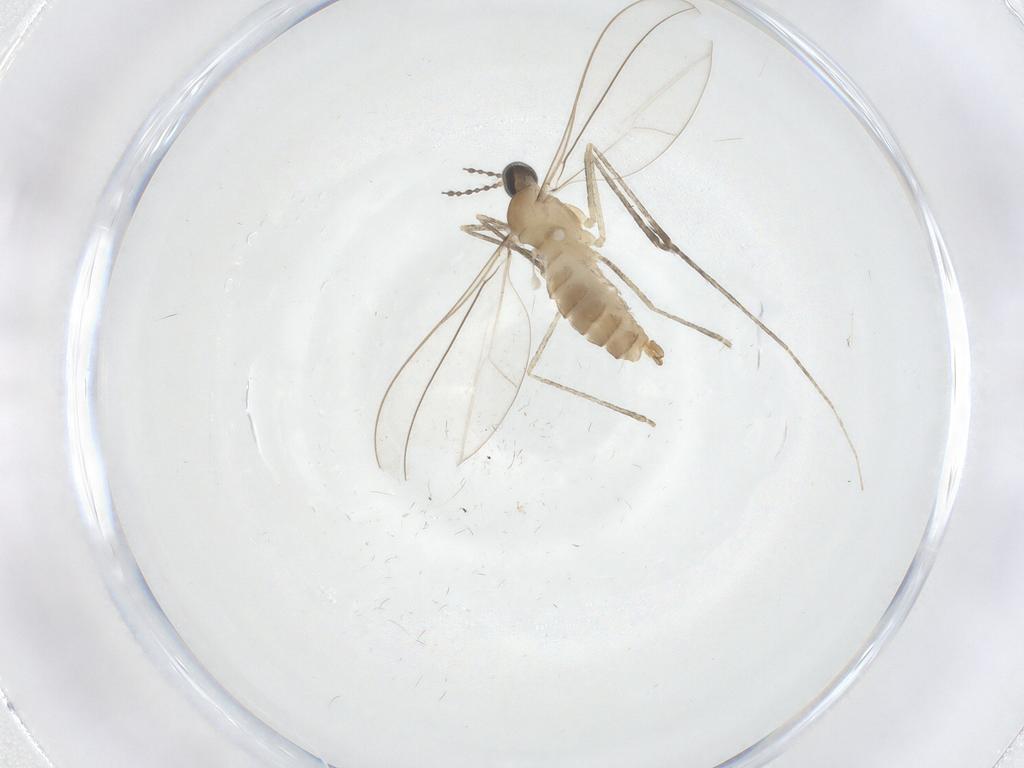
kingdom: Animalia
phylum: Arthropoda
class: Insecta
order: Diptera
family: Cecidomyiidae
